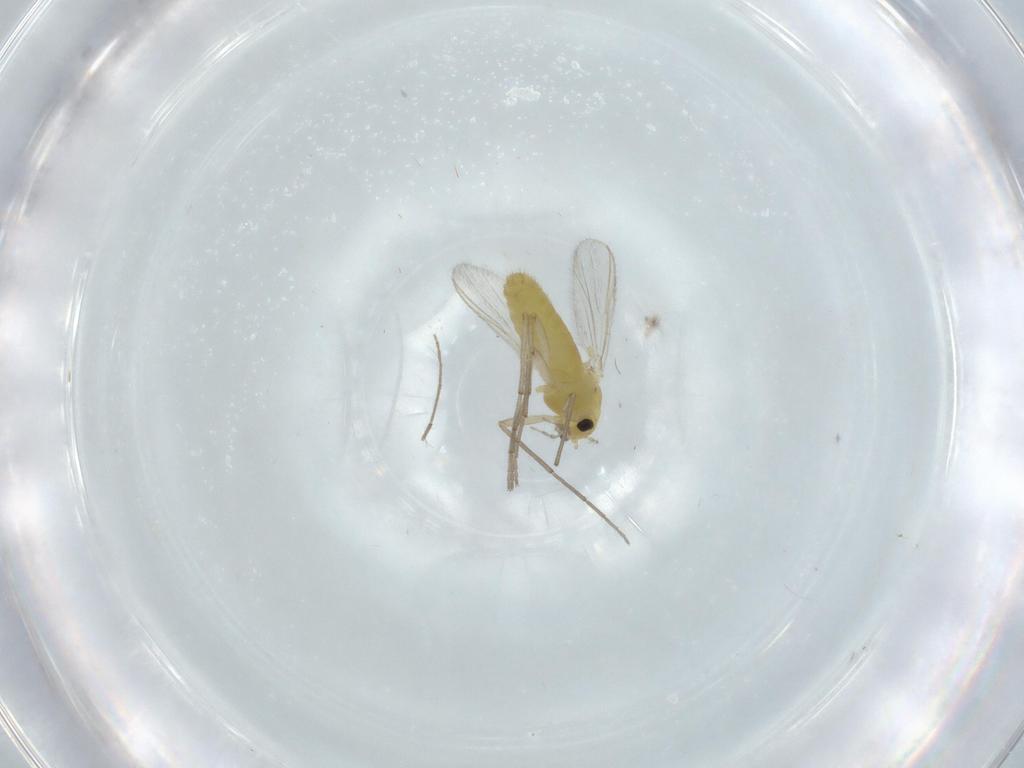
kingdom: Animalia
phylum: Arthropoda
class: Insecta
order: Diptera
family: Chironomidae
